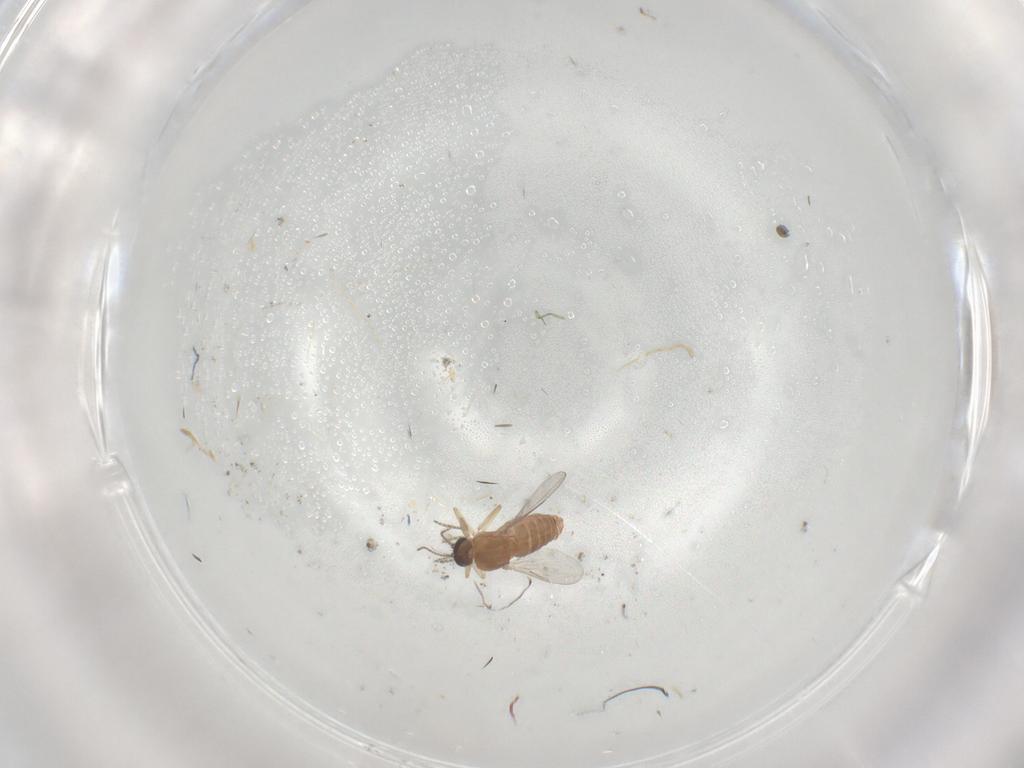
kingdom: Animalia
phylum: Arthropoda
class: Insecta
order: Diptera
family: Ceratopogonidae
